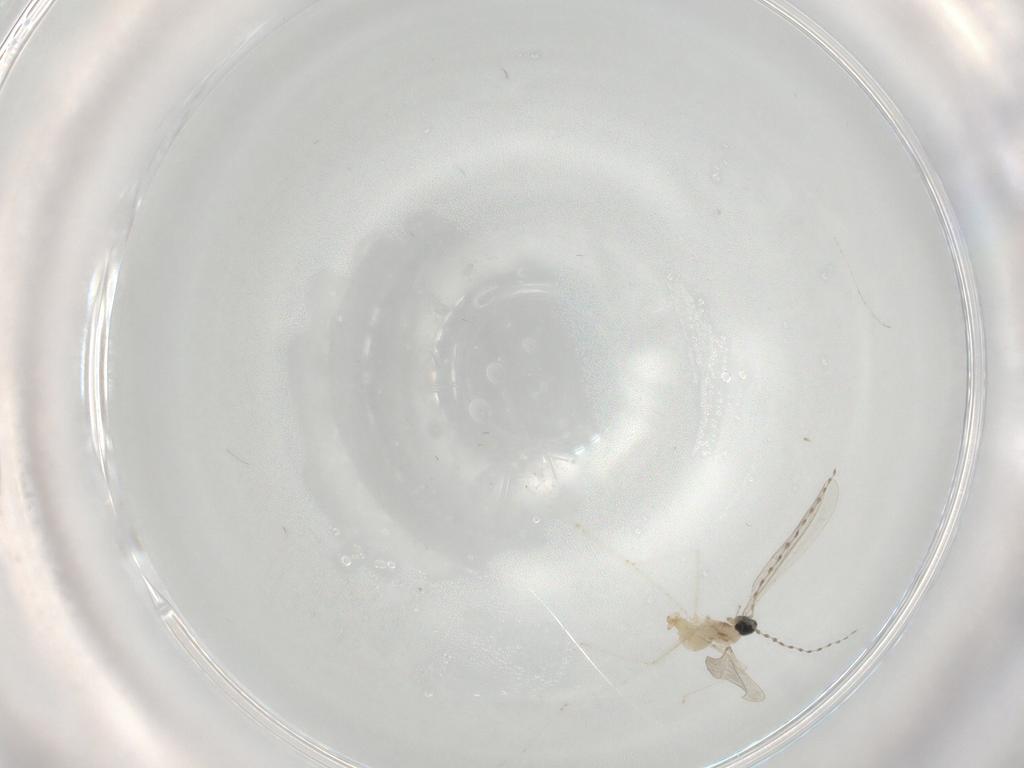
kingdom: Animalia
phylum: Arthropoda
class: Insecta
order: Diptera
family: Cecidomyiidae
